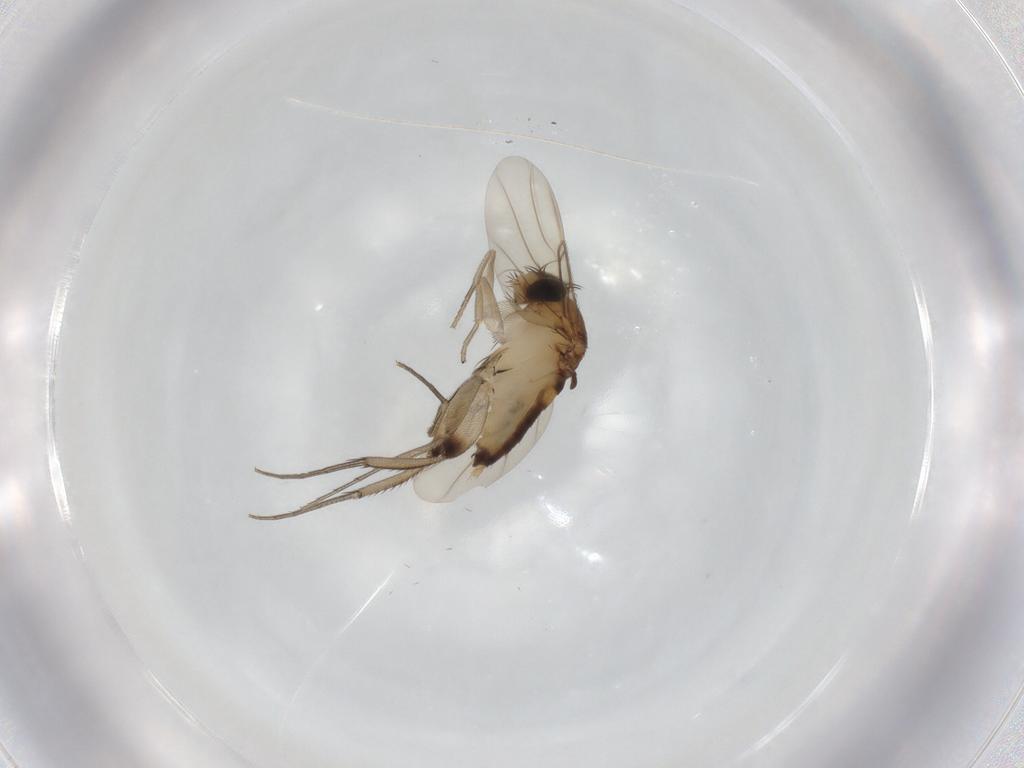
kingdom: Animalia
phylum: Arthropoda
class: Insecta
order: Diptera
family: Phoridae
